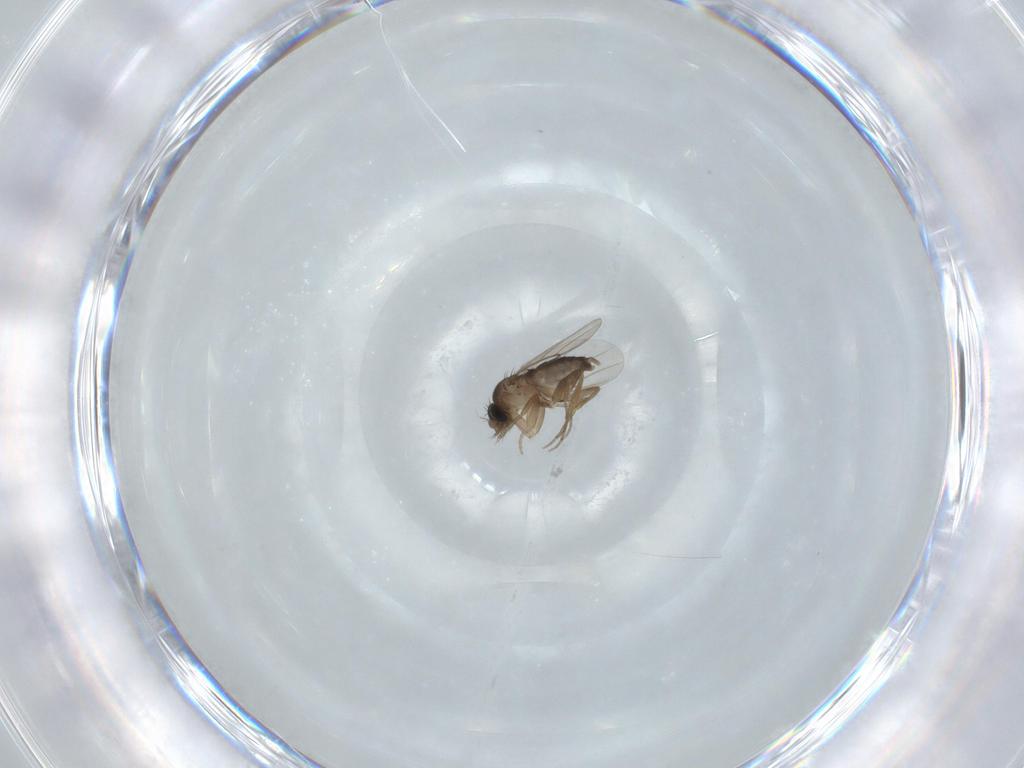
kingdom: Animalia
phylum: Arthropoda
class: Insecta
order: Diptera
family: Phoridae
